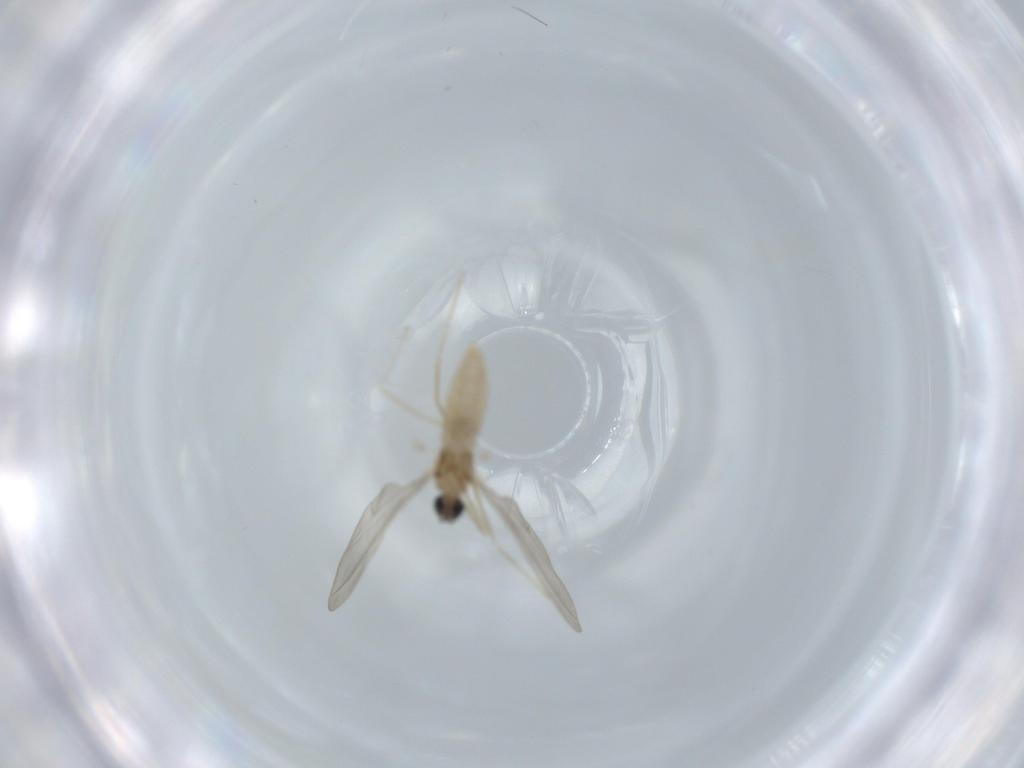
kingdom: Animalia
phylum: Arthropoda
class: Insecta
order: Diptera
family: Cecidomyiidae
